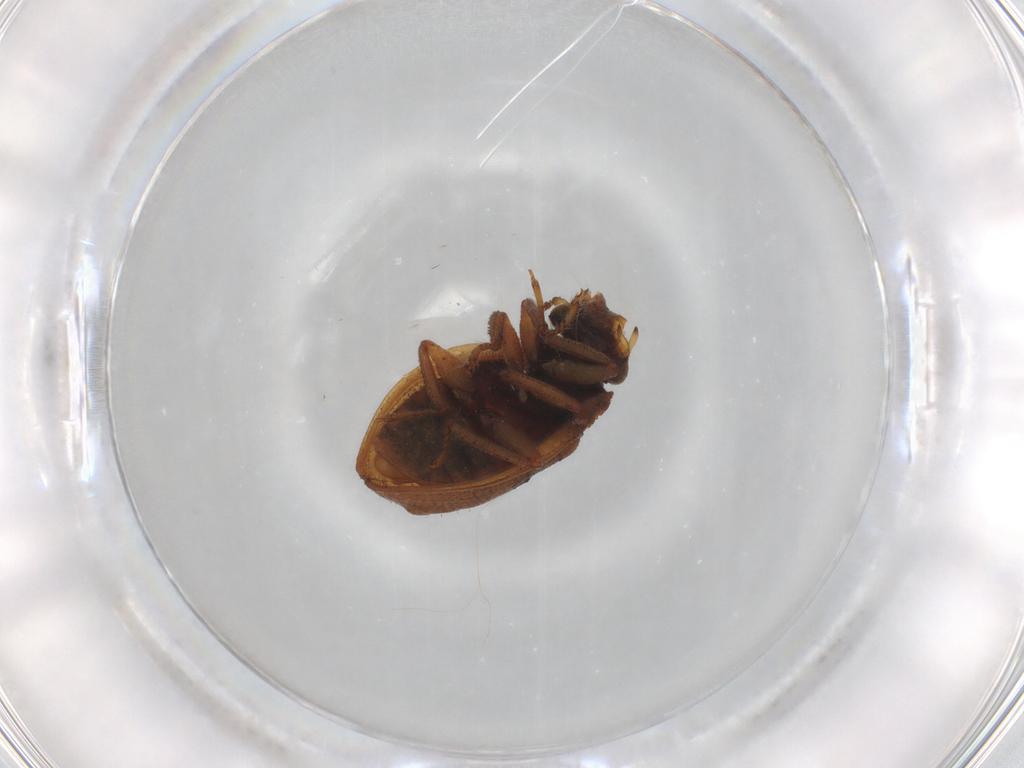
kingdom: Animalia
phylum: Arthropoda
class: Insecta
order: Coleoptera
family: Spercheidae
